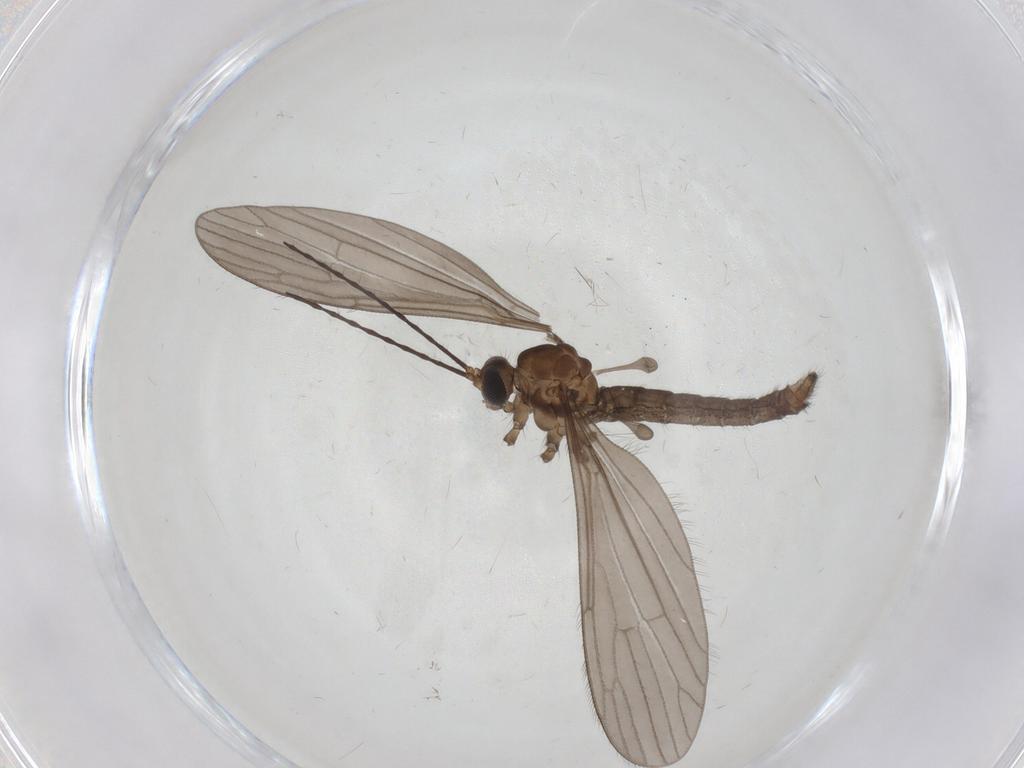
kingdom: Animalia
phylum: Arthropoda
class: Insecta
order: Diptera
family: Limoniidae
